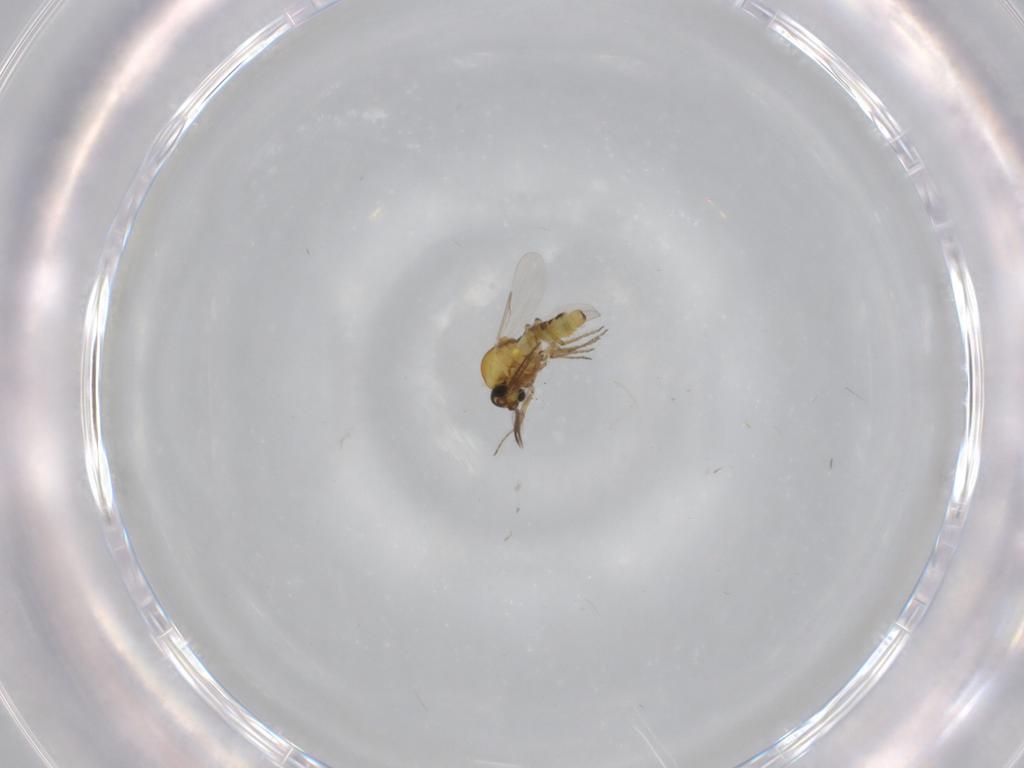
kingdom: Animalia
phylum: Arthropoda
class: Insecta
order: Diptera
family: Chironomidae
